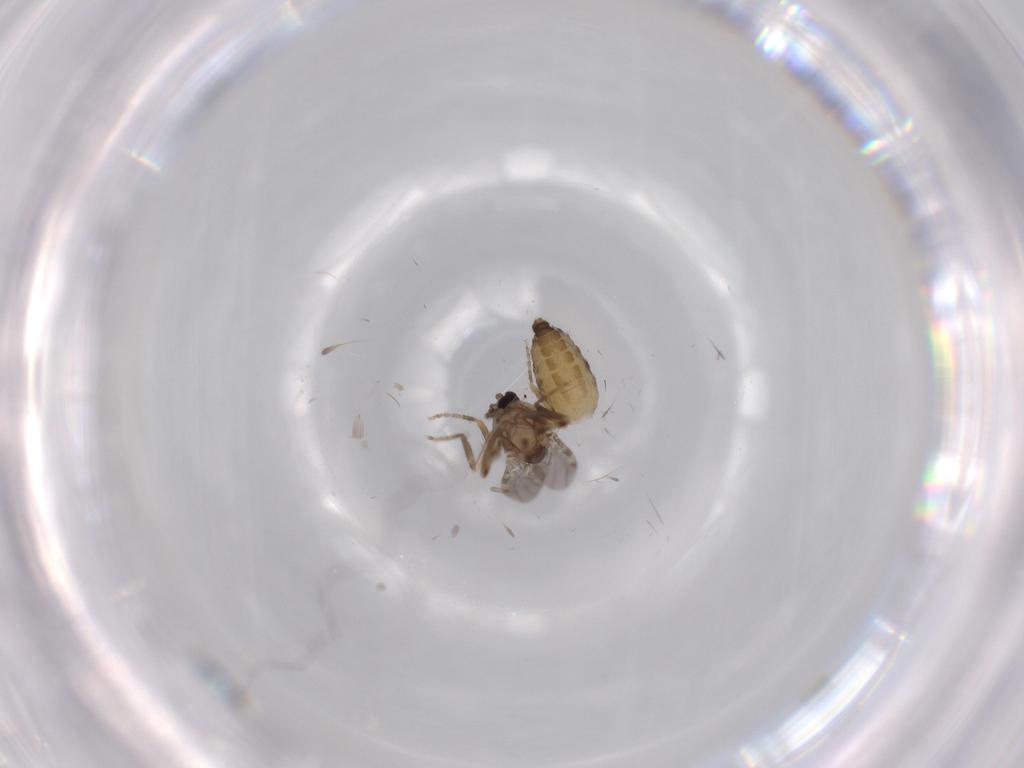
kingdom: Animalia
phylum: Arthropoda
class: Insecta
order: Diptera
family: Ceratopogonidae
